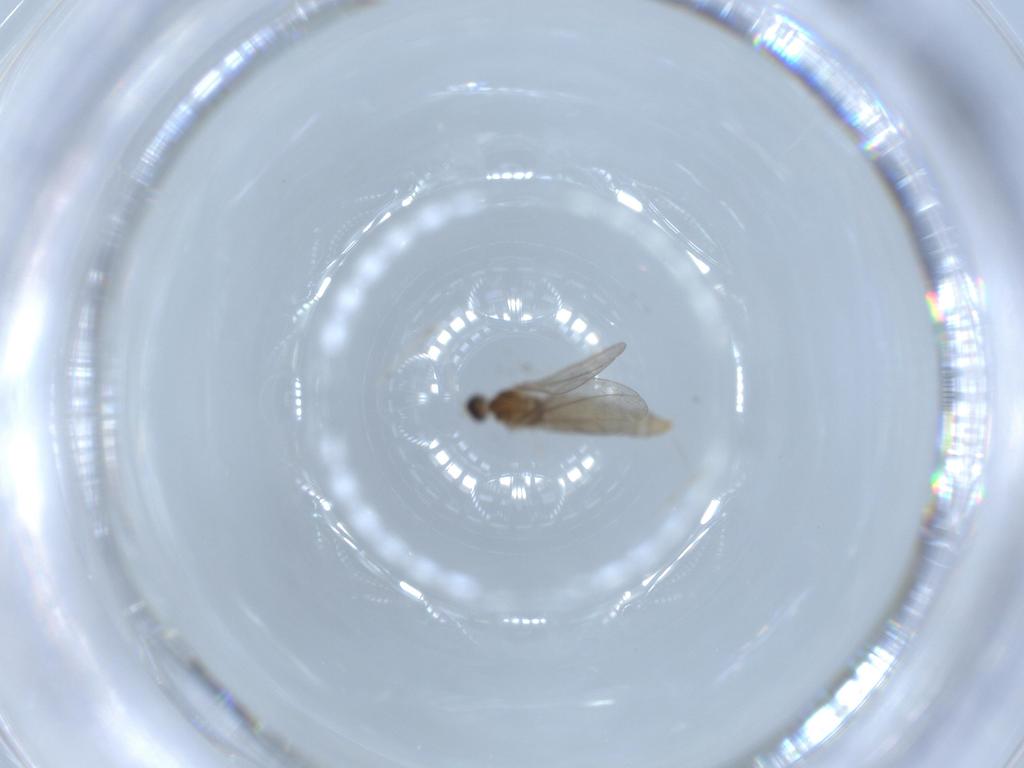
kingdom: Animalia
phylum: Arthropoda
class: Insecta
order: Diptera
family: Cecidomyiidae
